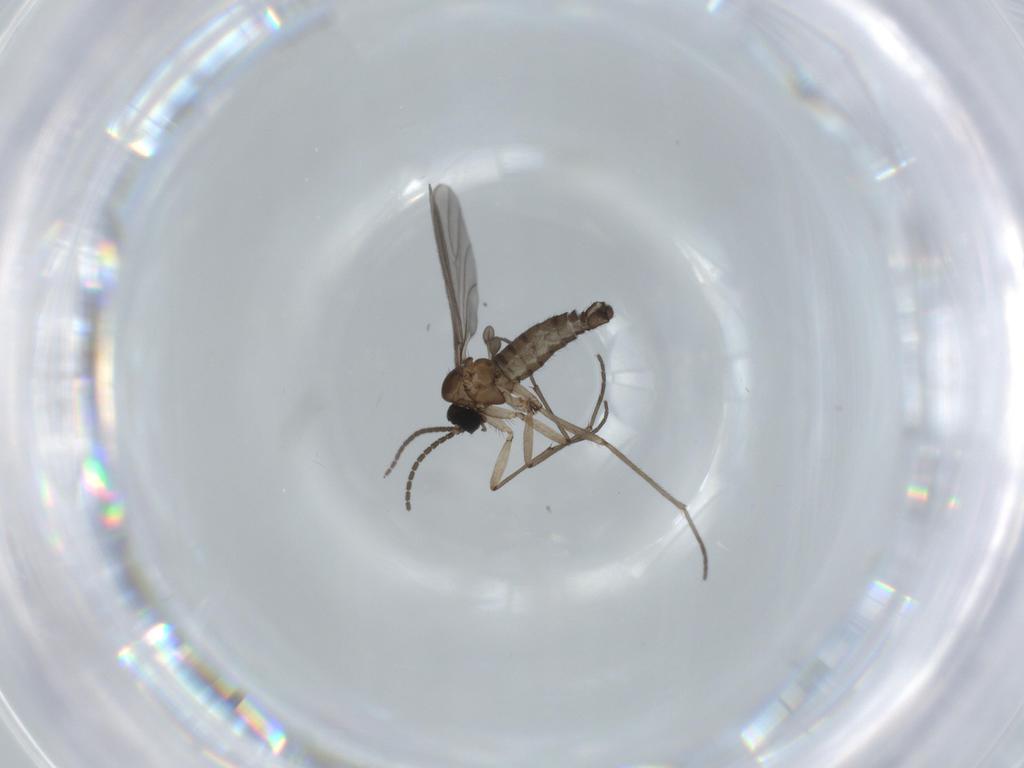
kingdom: Animalia
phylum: Arthropoda
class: Insecta
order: Diptera
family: Sciaridae
